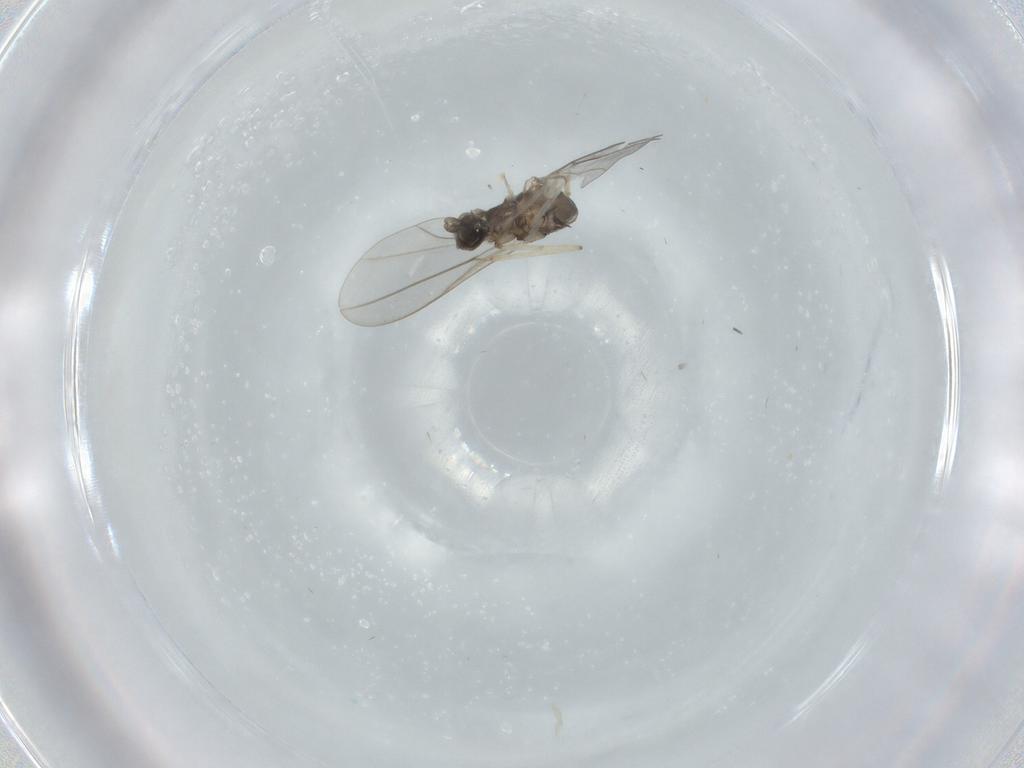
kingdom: Animalia
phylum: Arthropoda
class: Insecta
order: Diptera
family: Cecidomyiidae
